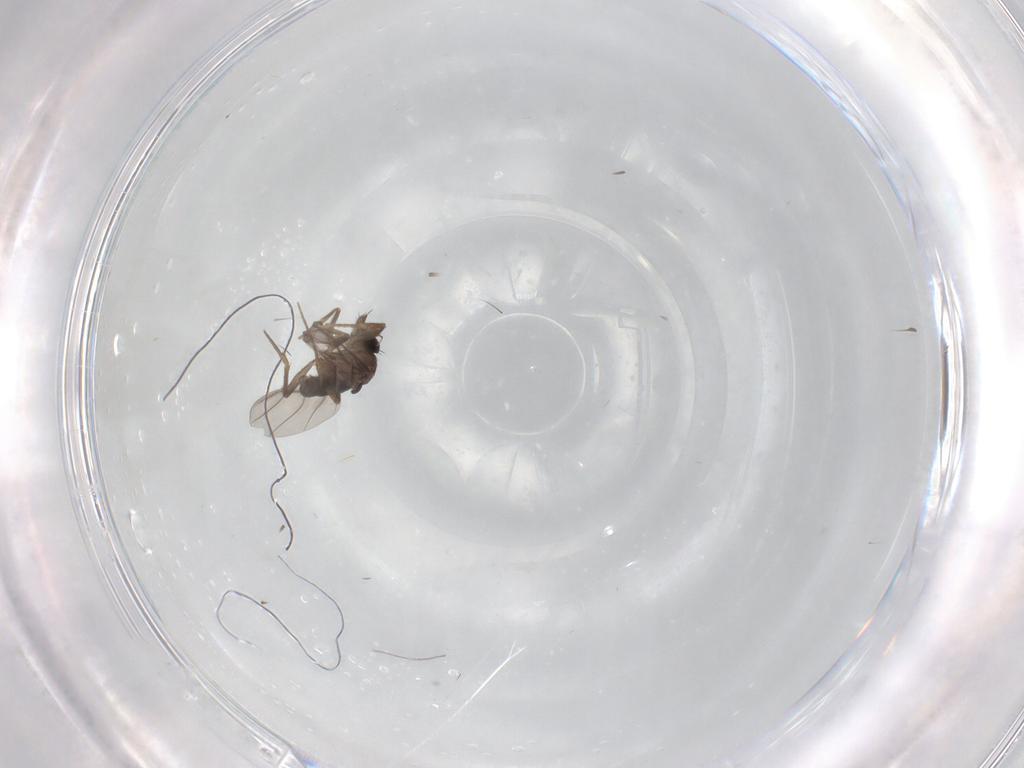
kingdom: Animalia
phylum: Arthropoda
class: Insecta
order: Diptera
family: Phoridae
